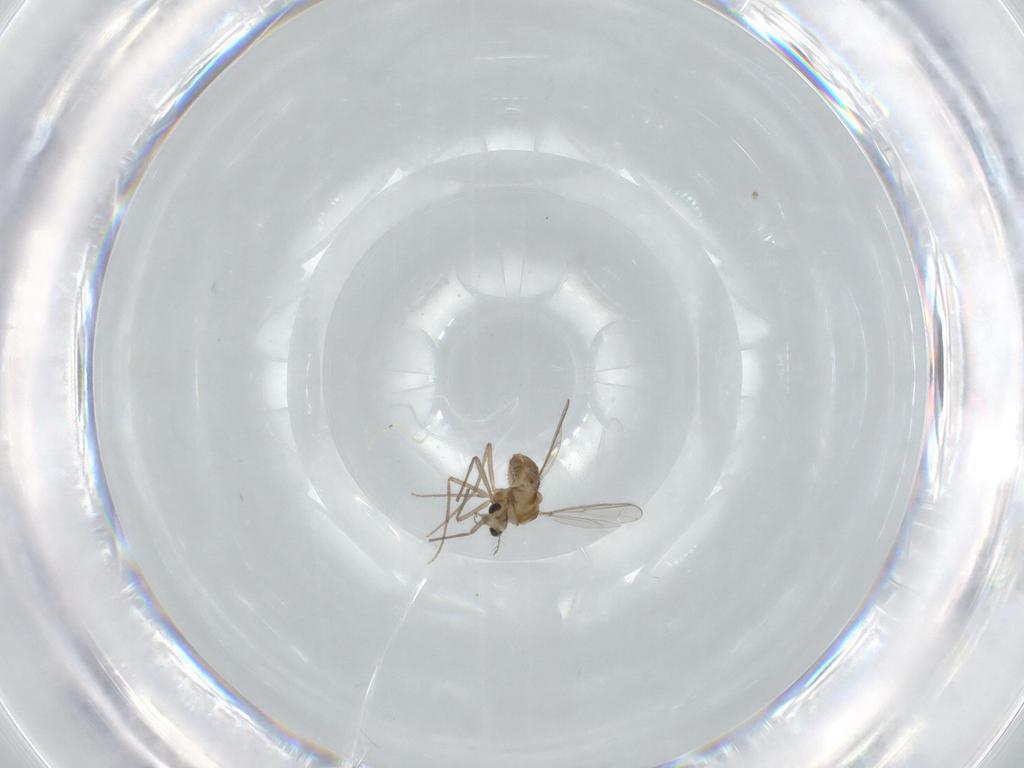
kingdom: Animalia
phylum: Arthropoda
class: Insecta
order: Diptera
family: Chironomidae
